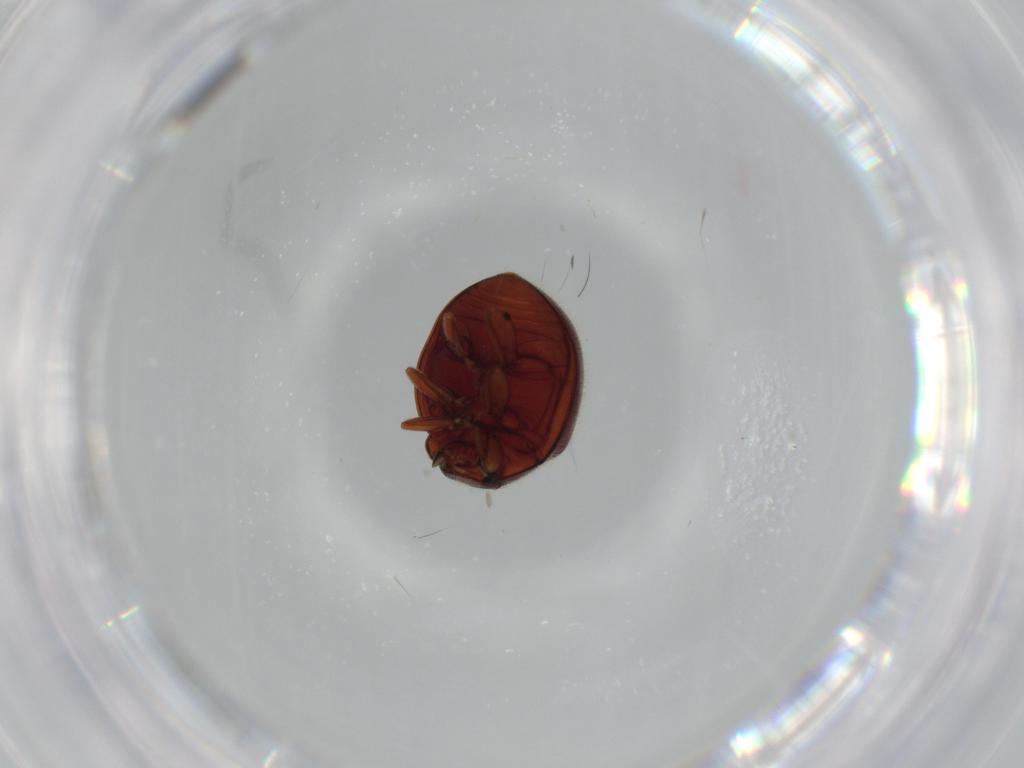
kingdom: Animalia
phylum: Arthropoda
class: Insecta
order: Coleoptera
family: Coccinellidae
